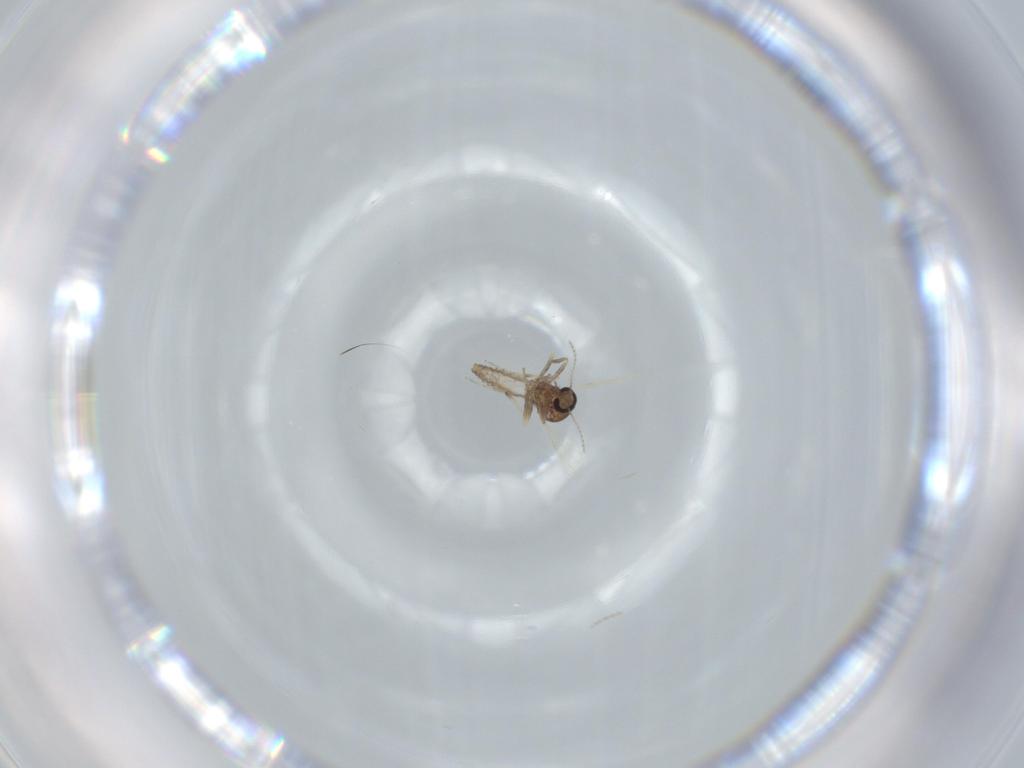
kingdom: Animalia
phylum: Arthropoda
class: Insecta
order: Diptera
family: Ceratopogonidae
